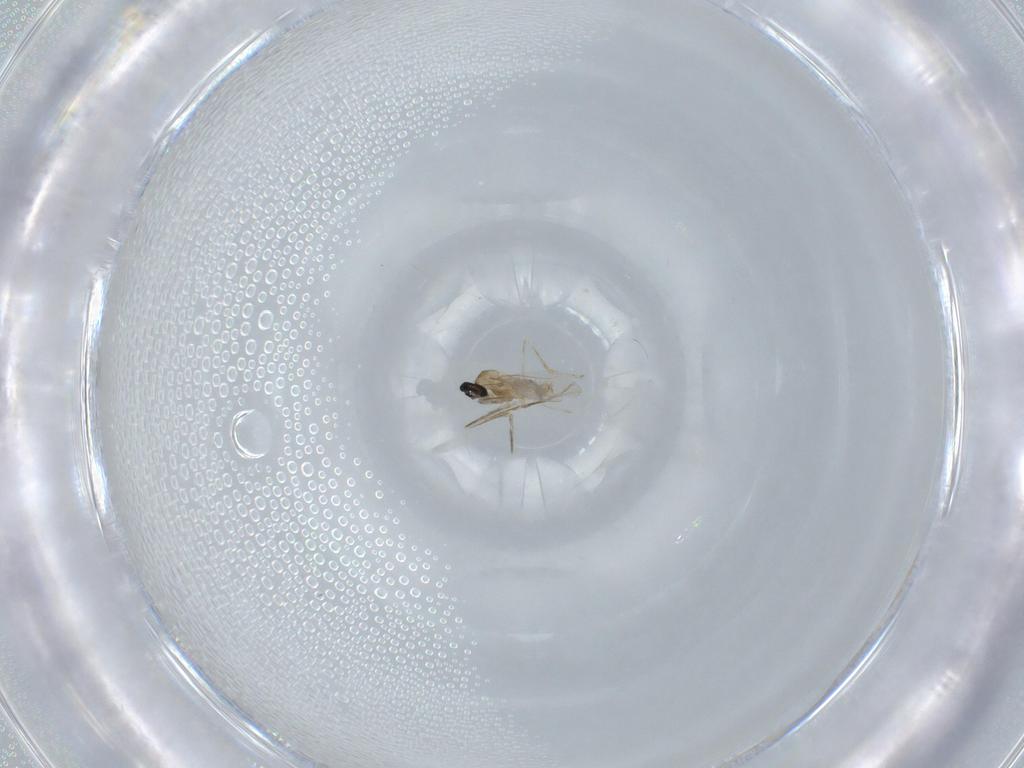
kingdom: Animalia
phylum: Arthropoda
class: Insecta
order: Diptera
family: Cecidomyiidae
